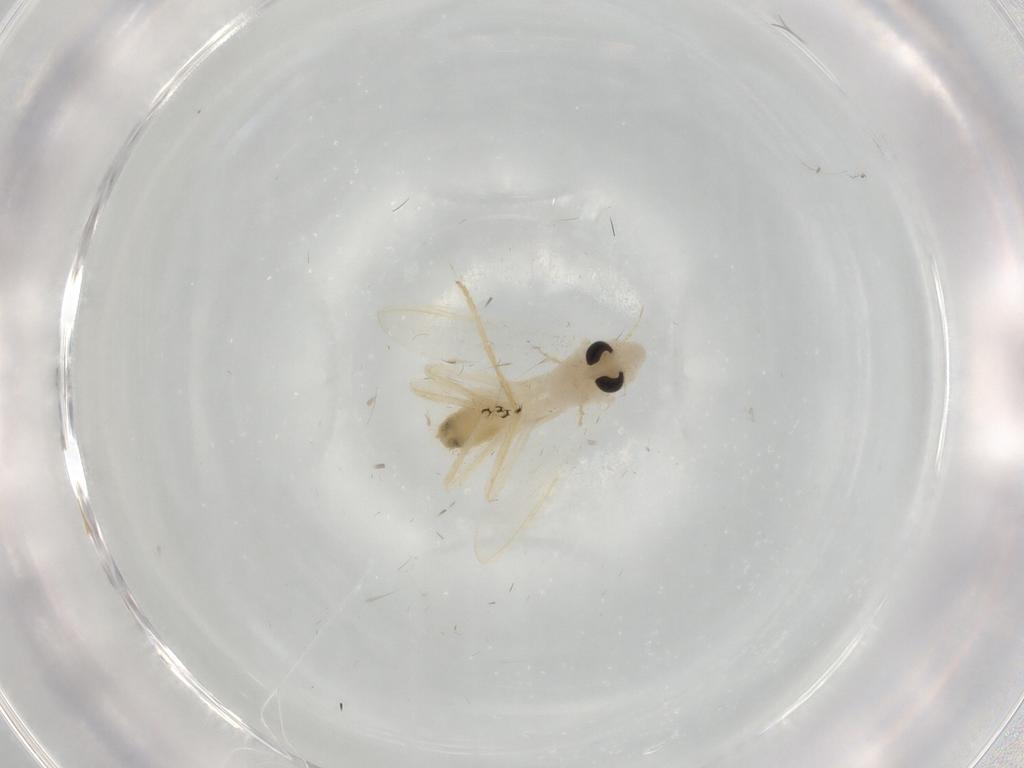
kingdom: Animalia
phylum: Arthropoda
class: Insecta
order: Diptera
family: Chironomidae
